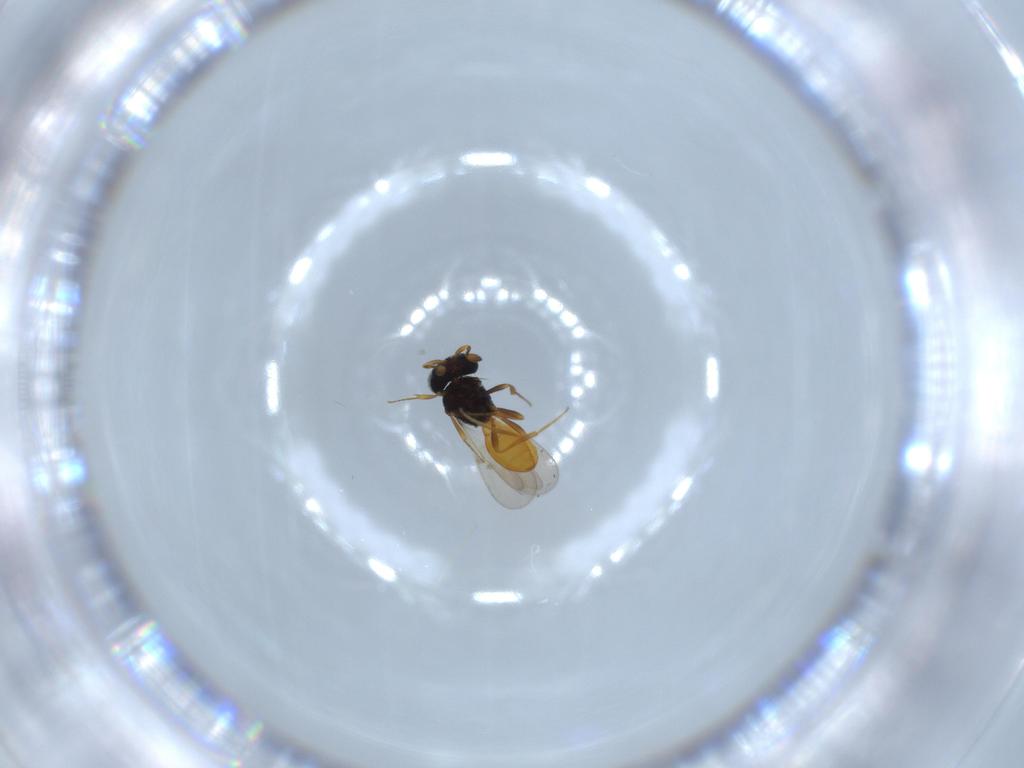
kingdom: Animalia
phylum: Arthropoda
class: Insecta
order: Hymenoptera
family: Scelionidae
